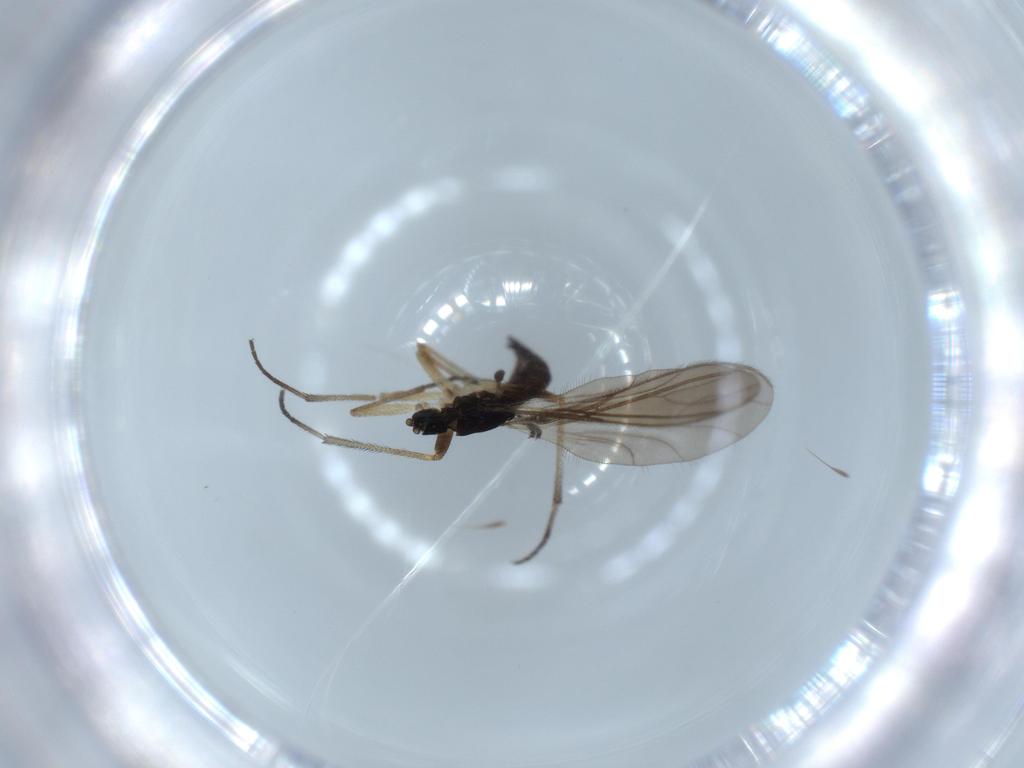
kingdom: Animalia
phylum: Arthropoda
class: Insecta
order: Diptera
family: Sciaridae
